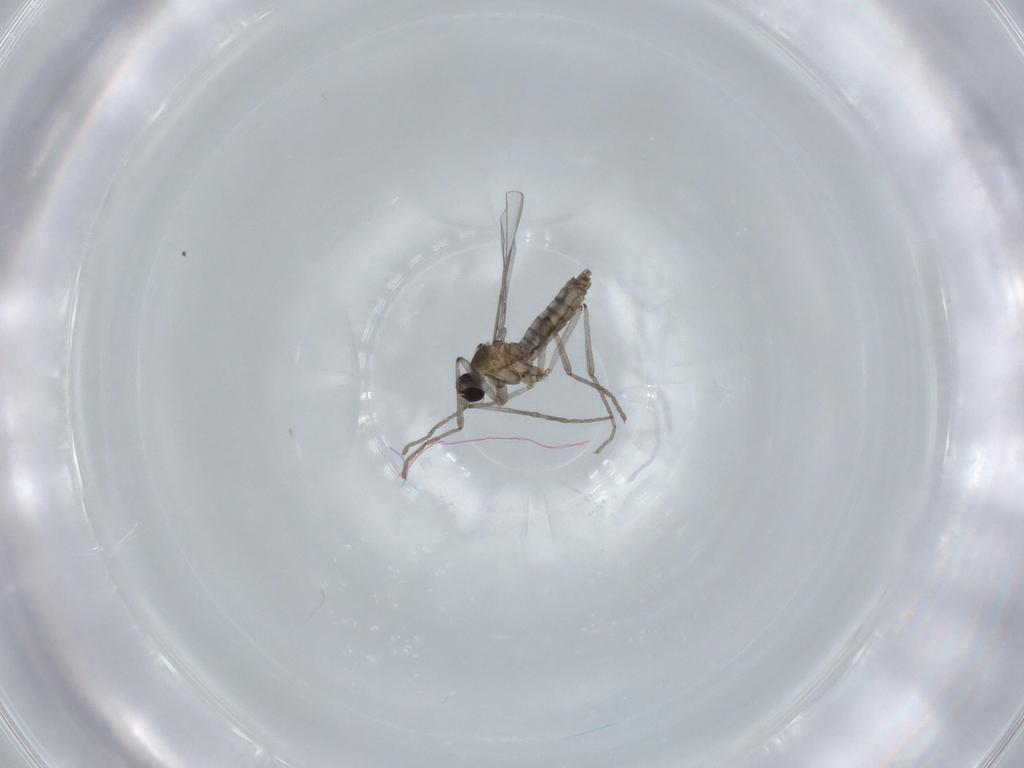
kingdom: Animalia
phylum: Arthropoda
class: Insecta
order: Diptera
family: Cecidomyiidae
